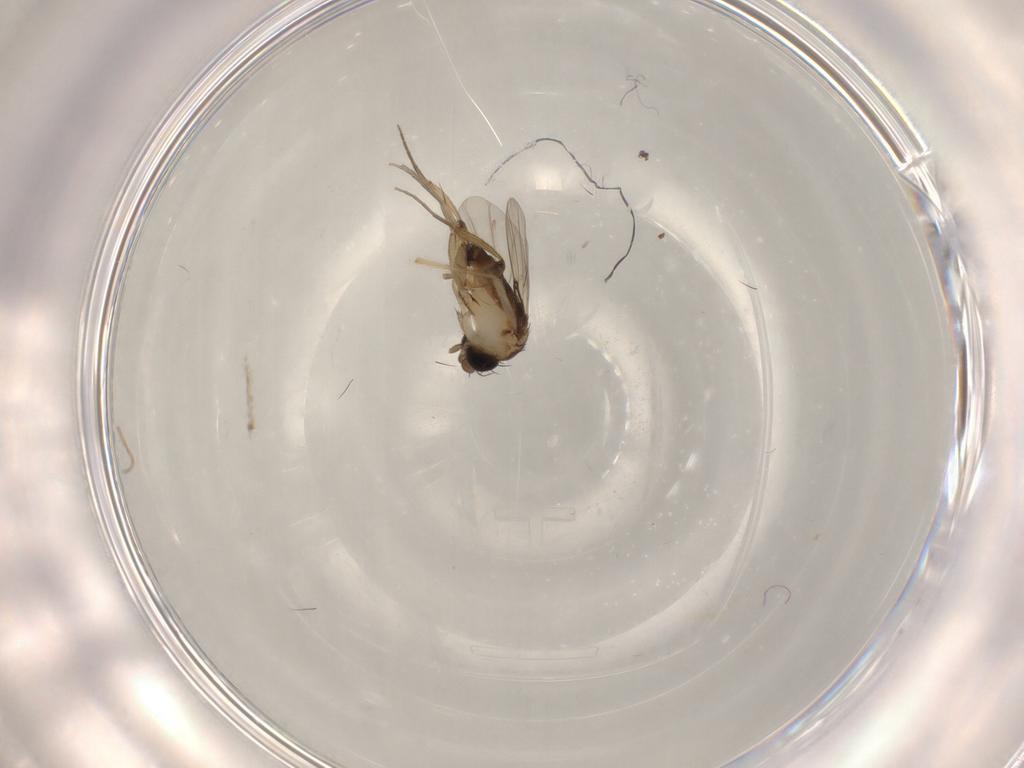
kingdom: Animalia
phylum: Arthropoda
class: Insecta
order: Diptera
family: Phoridae
